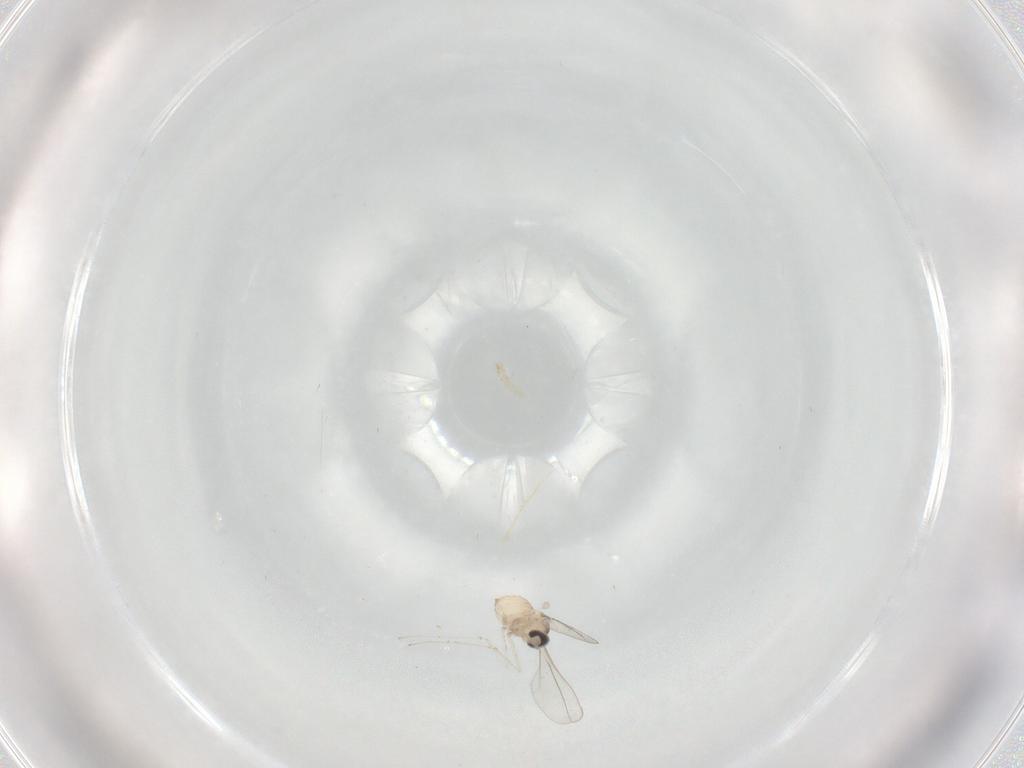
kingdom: Animalia
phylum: Arthropoda
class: Insecta
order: Diptera
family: Cecidomyiidae
